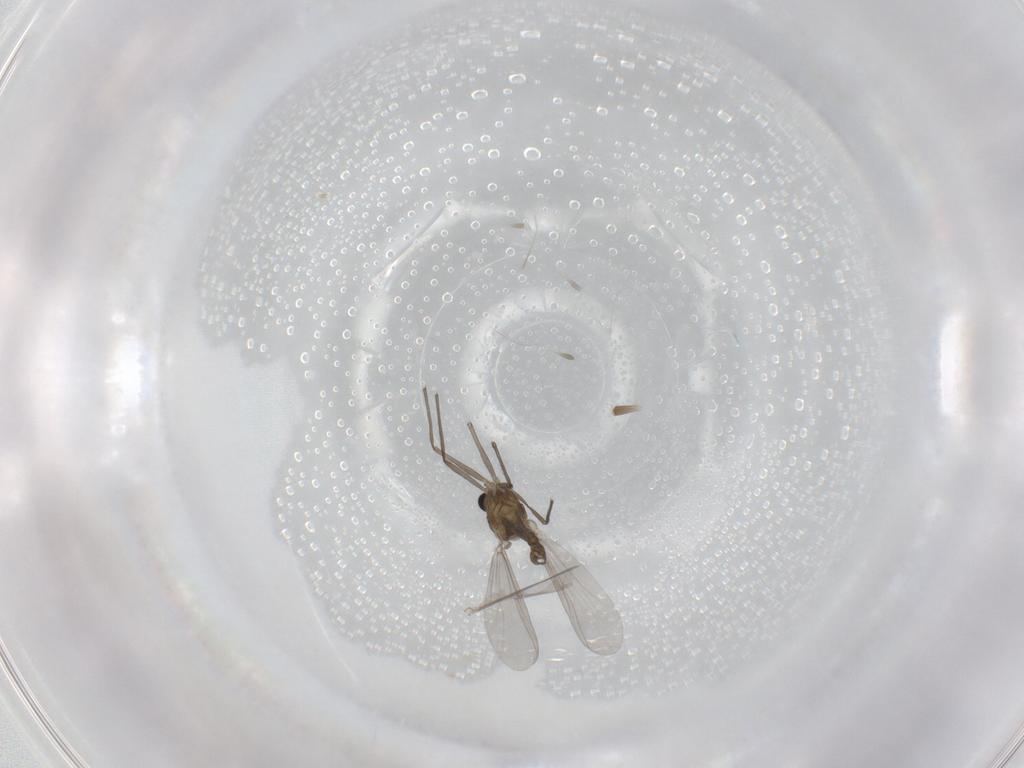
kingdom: Animalia
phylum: Arthropoda
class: Insecta
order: Diptera
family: Chironomidae
